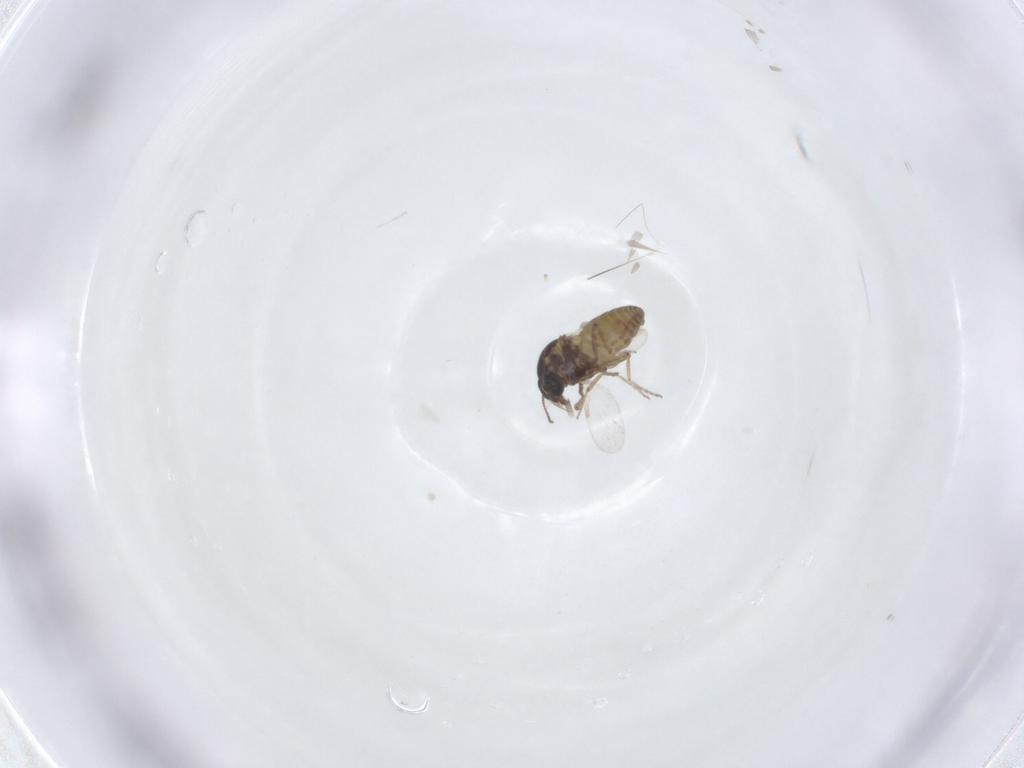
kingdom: Animalia
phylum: Arthropoda
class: Insecta
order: Diptera
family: Ceratopogonidae
